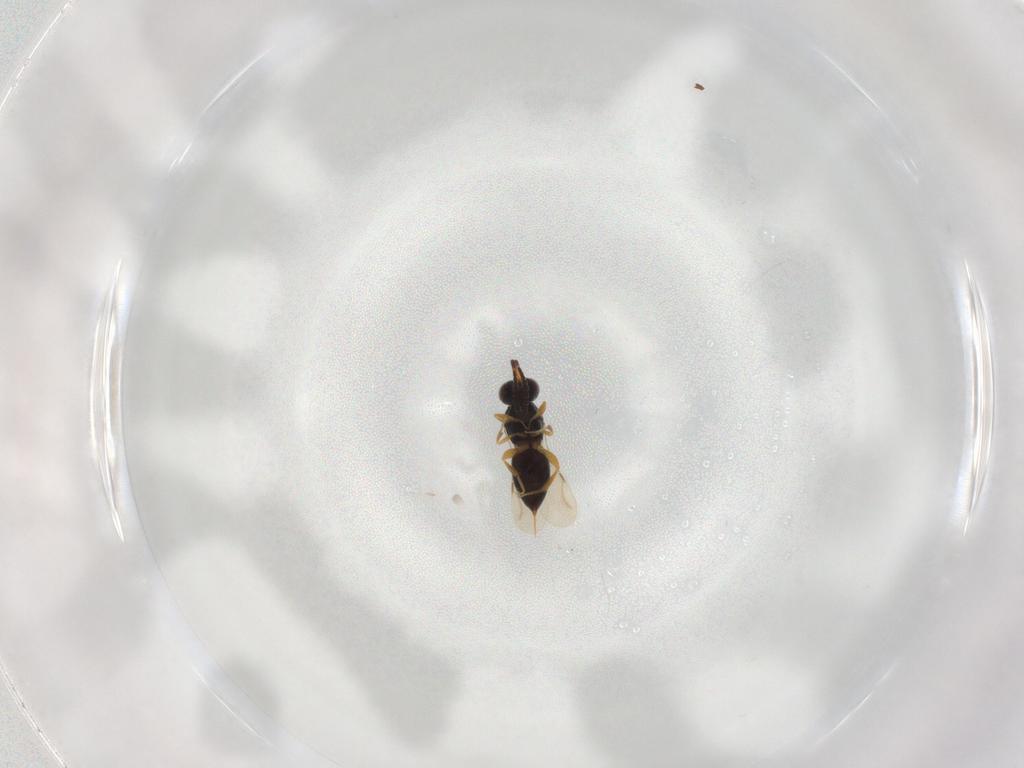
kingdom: Animalia
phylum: Arthropoda
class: Insecta
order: Hymenoptera
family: Ceraphronidae
